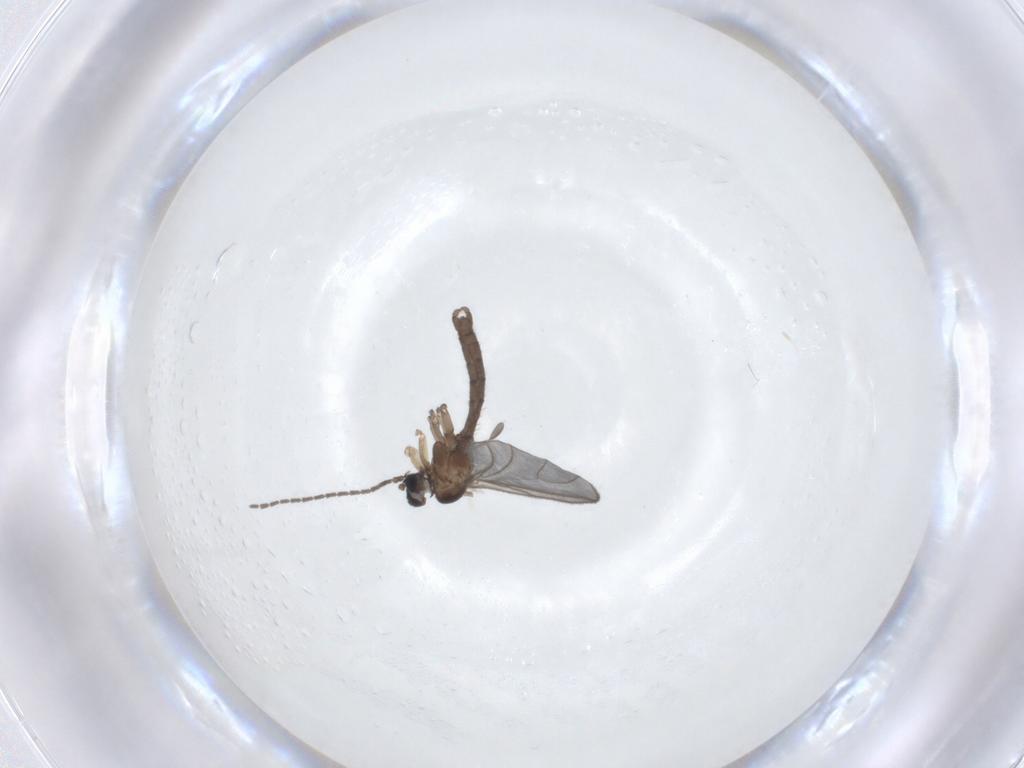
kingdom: Animalia
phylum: Arthropoda
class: Insecta
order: Diptera
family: Sciaridae
